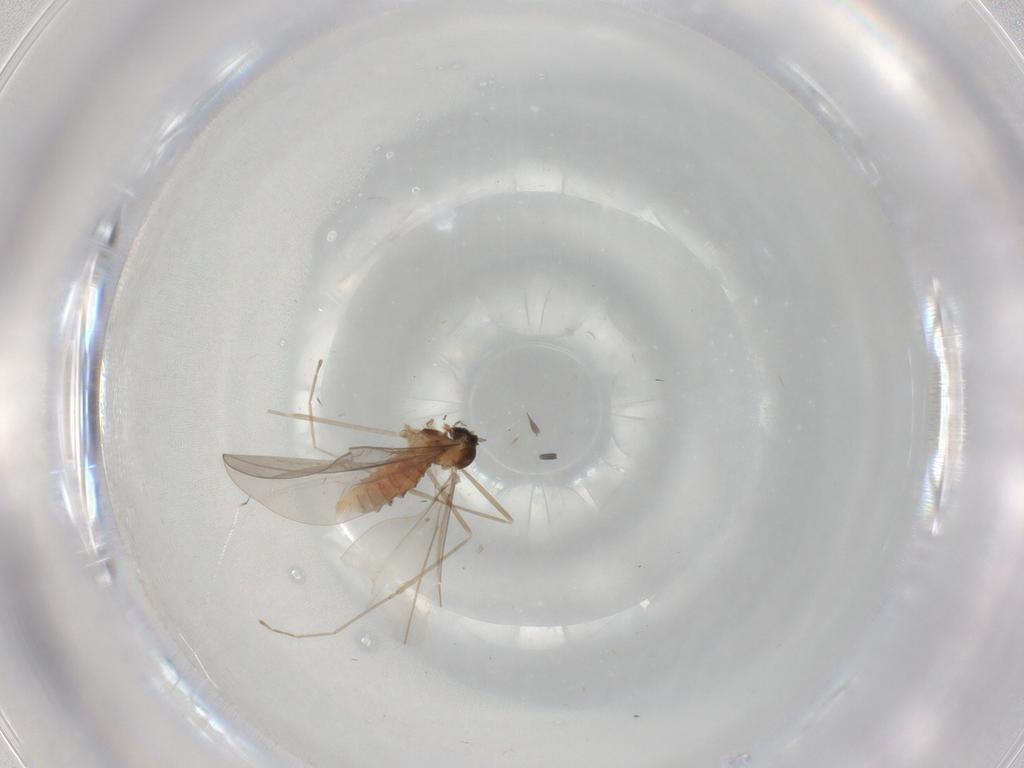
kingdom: Animalia
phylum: Arthropoda
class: Insecta
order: Diptera
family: Cecidomyiidae
